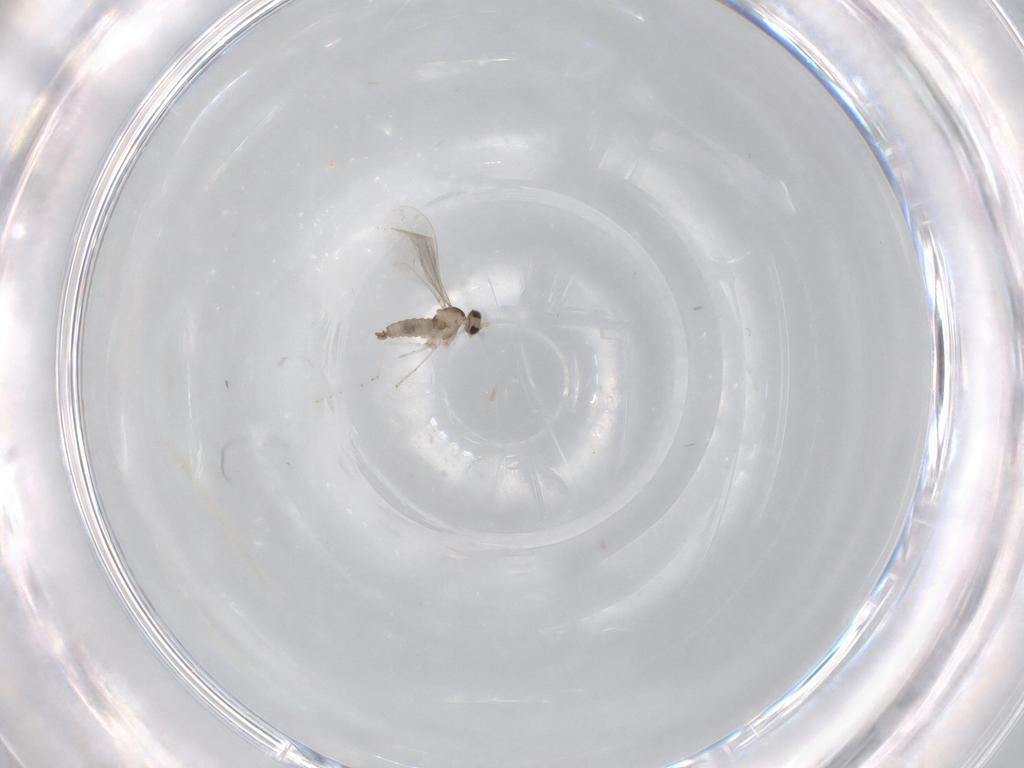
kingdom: Animalia
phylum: Arthropoda
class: Insecta
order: Diptera
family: Cecidomyiidae
